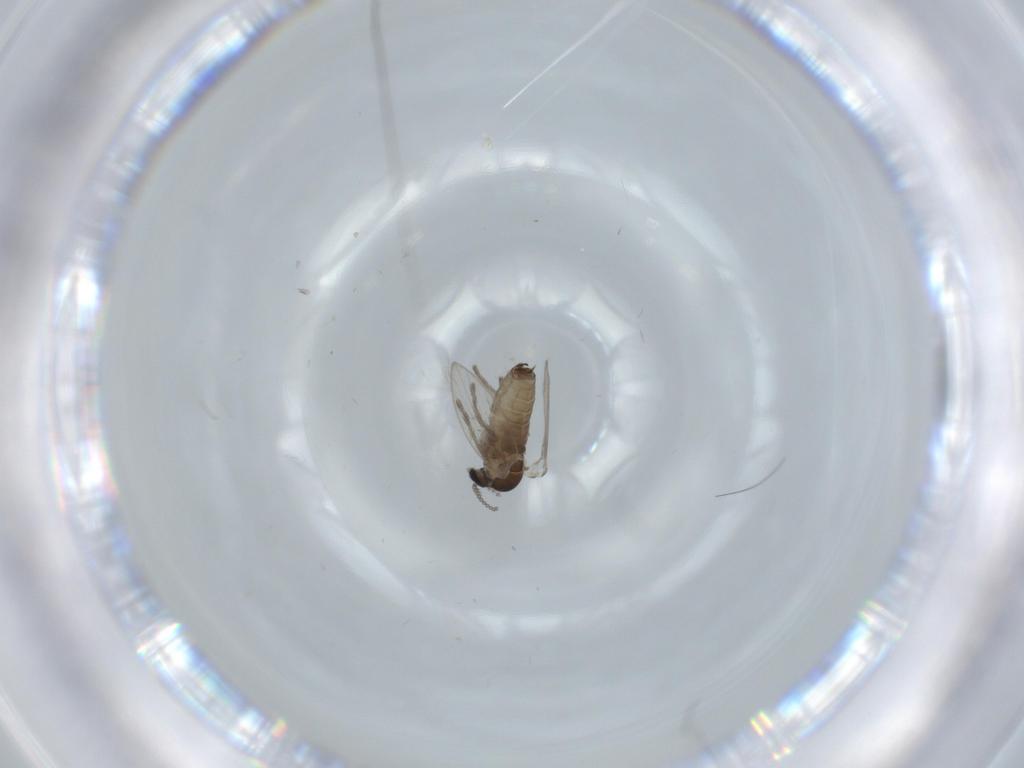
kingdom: Animalia
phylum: Arthropoda
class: Insecta
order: Diptera
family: Psychodidae
